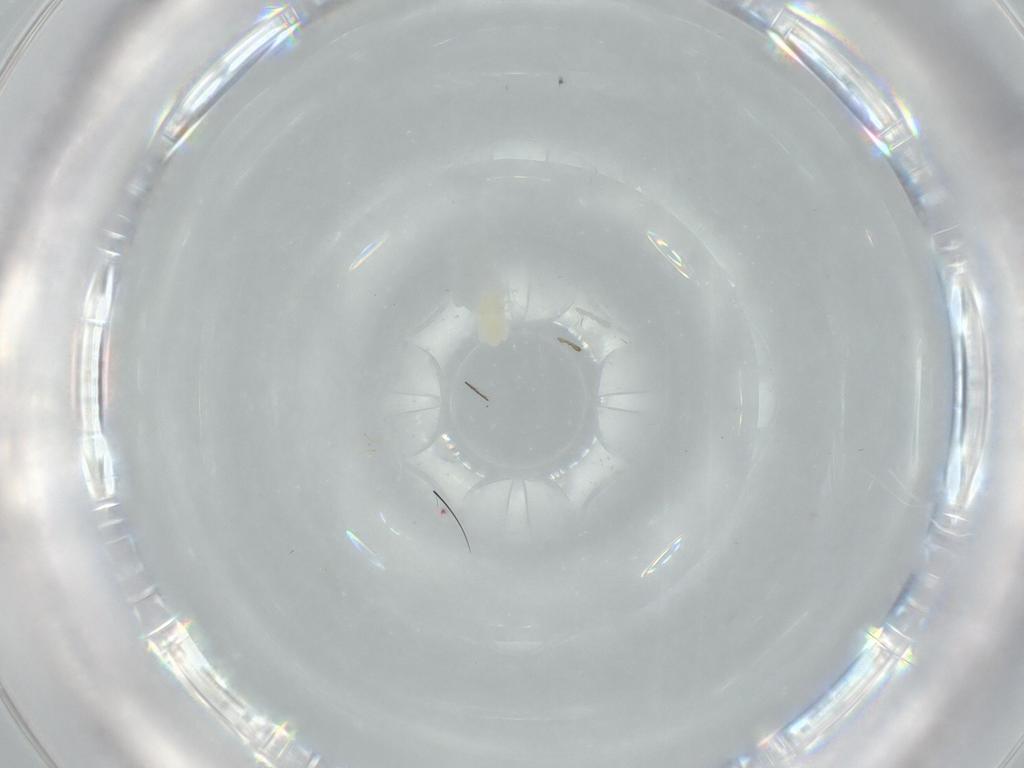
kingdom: Animalia
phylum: Arthropoda
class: Arachnida
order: Trombidiformes
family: Eupodidae
